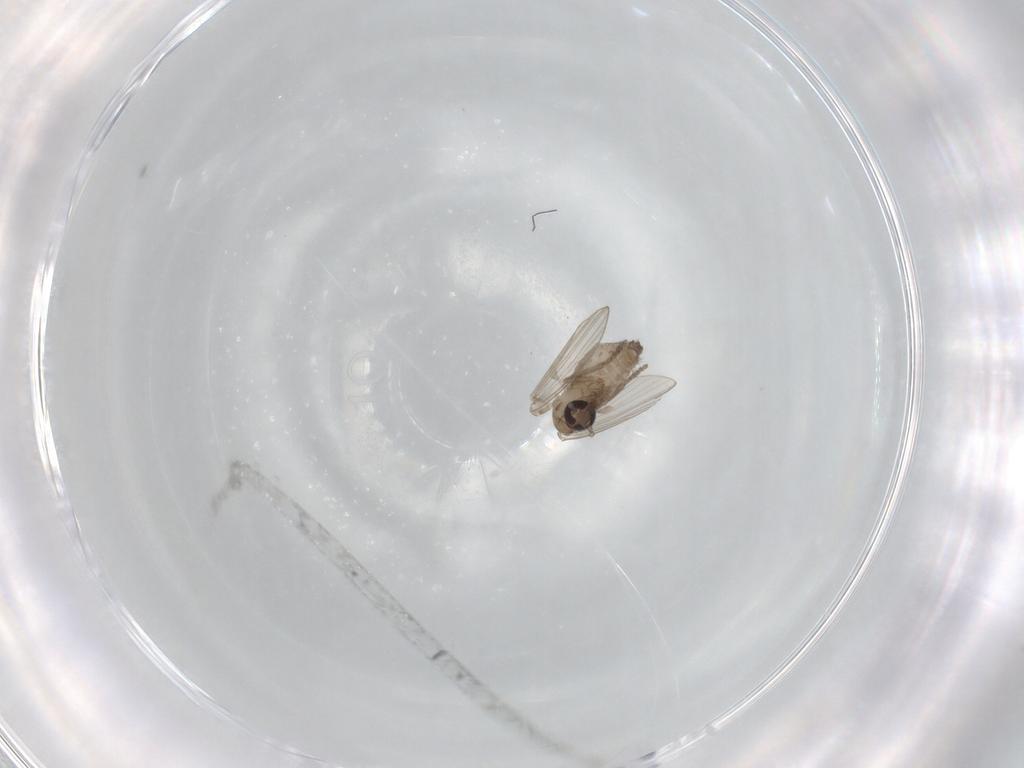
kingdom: Animalia
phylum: Arthropoda
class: Insecta
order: Diptera
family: Psychodidae
